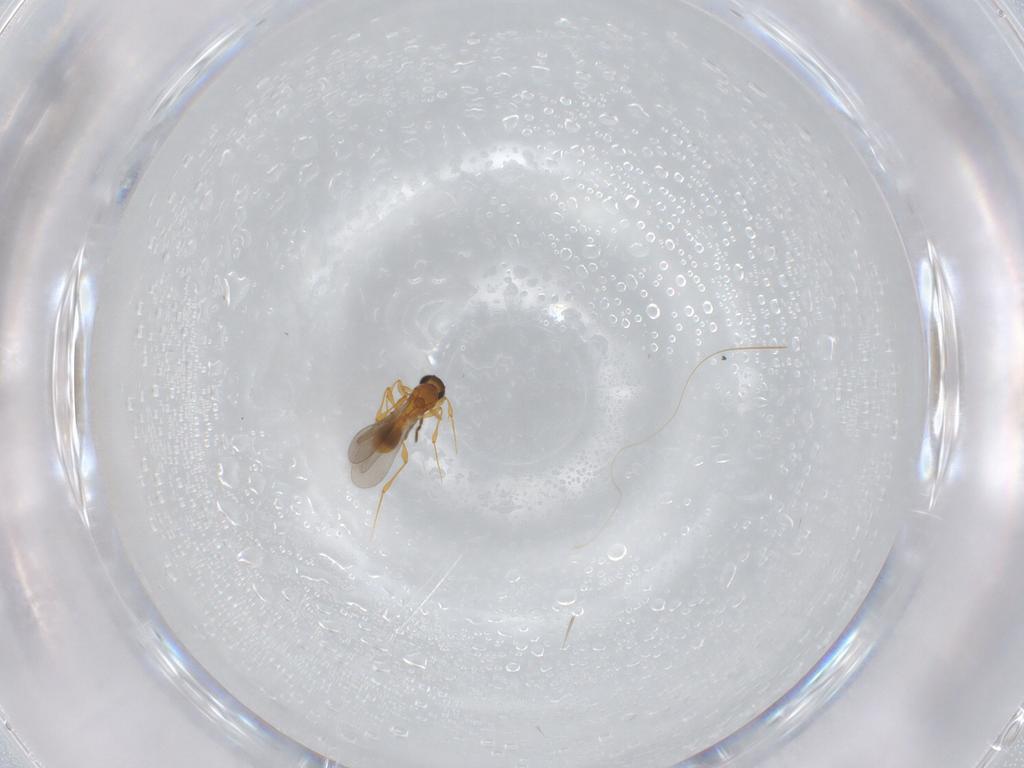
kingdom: Animalia
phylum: Arthropoda
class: Insecta
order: Hymenoptera
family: Platygastridae
